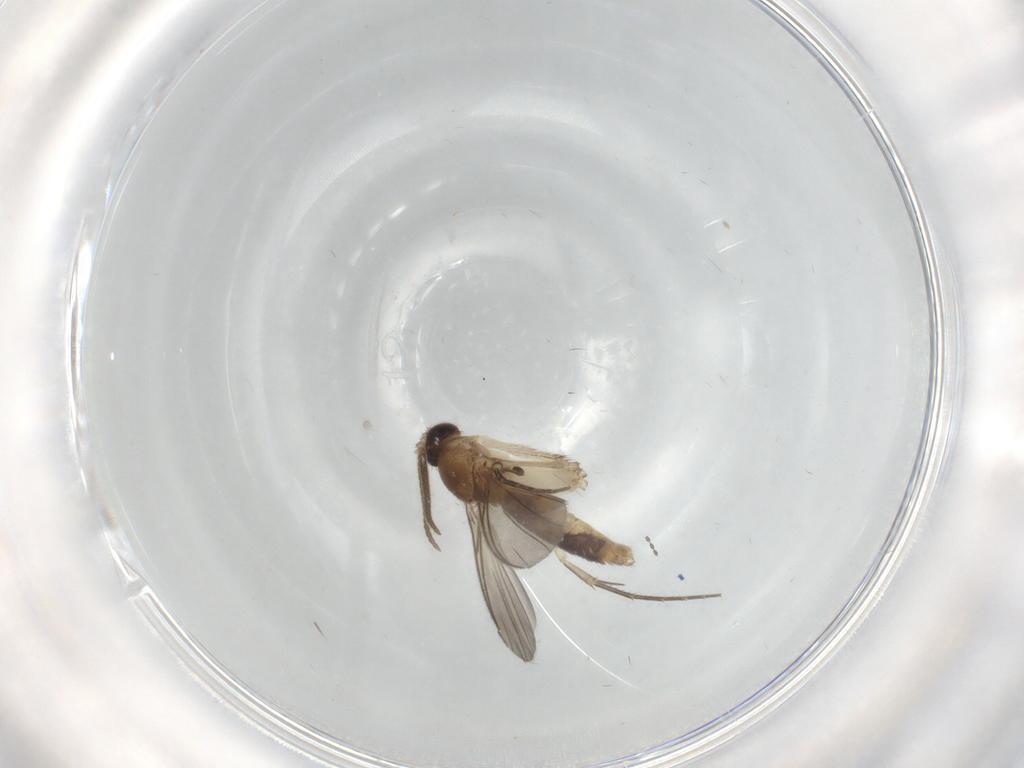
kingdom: Animalia
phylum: Arthropoda
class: Insecta
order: Diptera
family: Mycetophilidae
